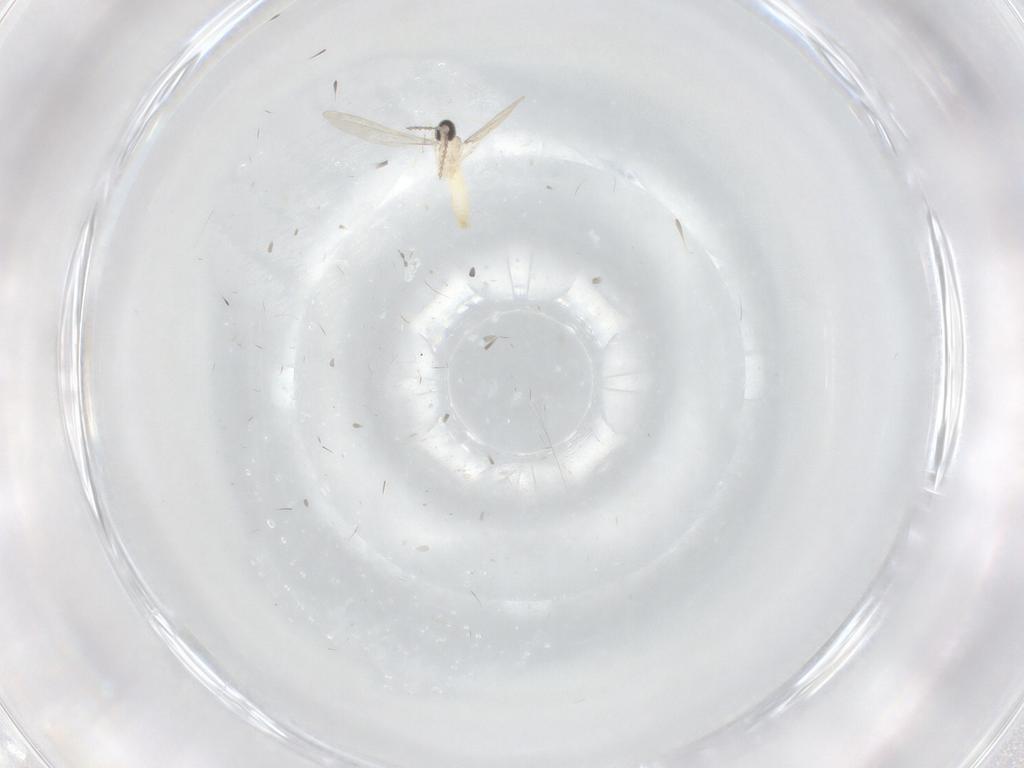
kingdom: Animalia
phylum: Arthropoda
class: Insecta
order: Diptera
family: Cecidomyiidae
